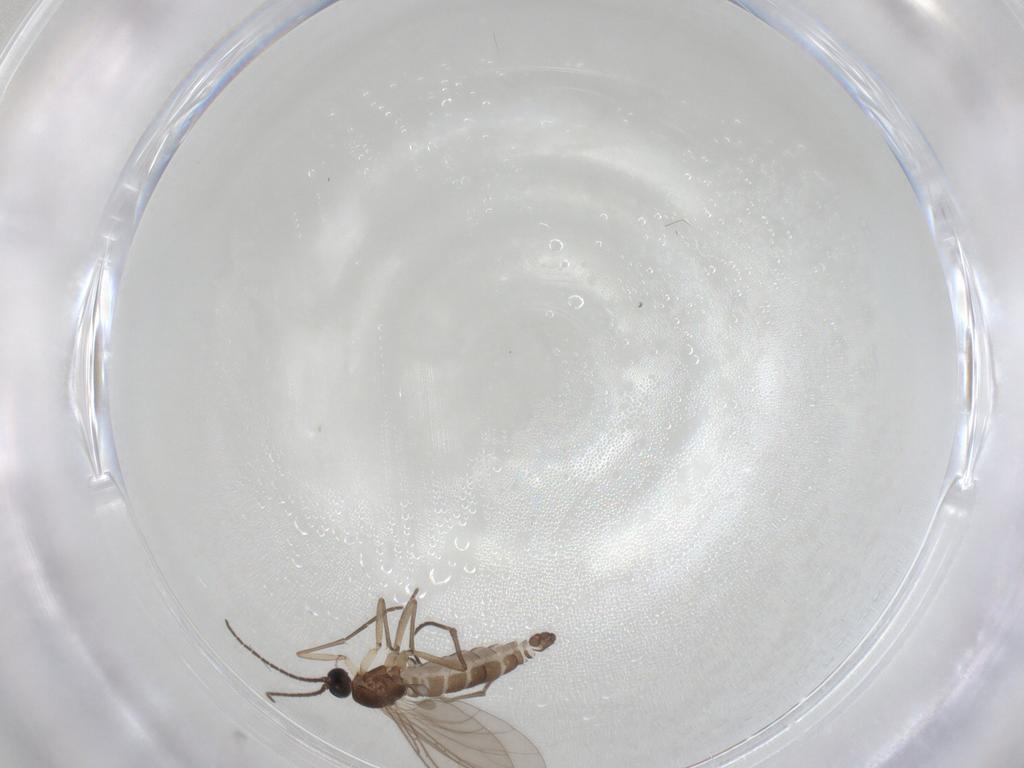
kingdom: Animalia
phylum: Arthropoda
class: Insecta
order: Diptera
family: Sciaridae
